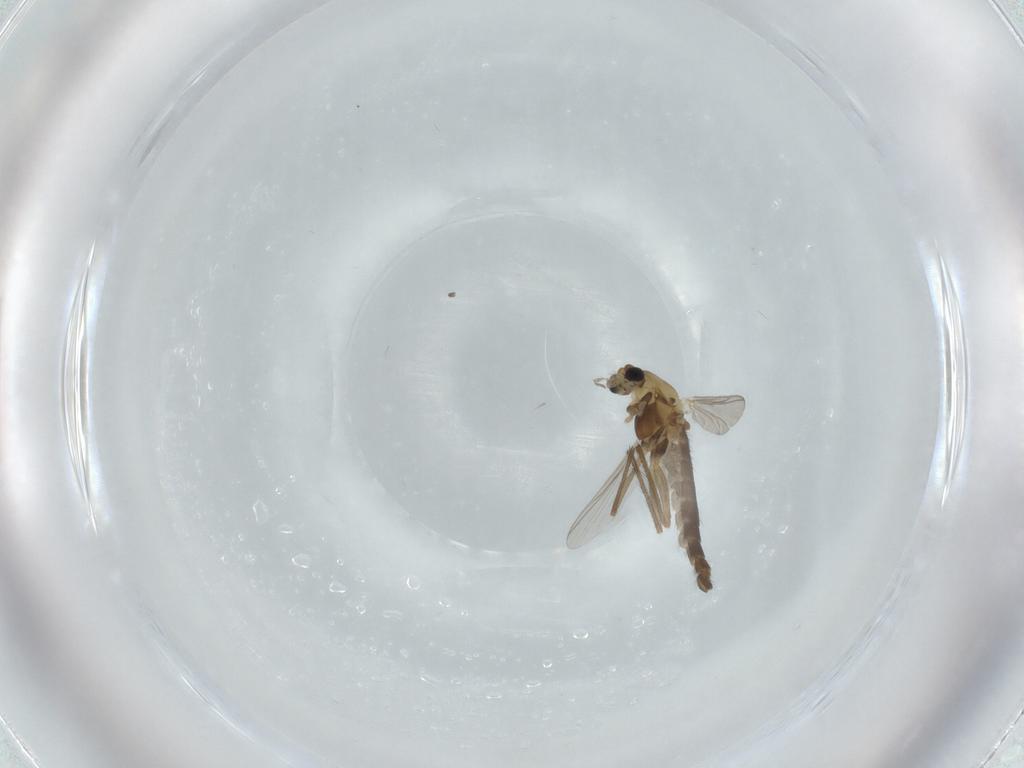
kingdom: Animalia
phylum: Arthropoda
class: Insecta
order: Diptera
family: Chironomidae
